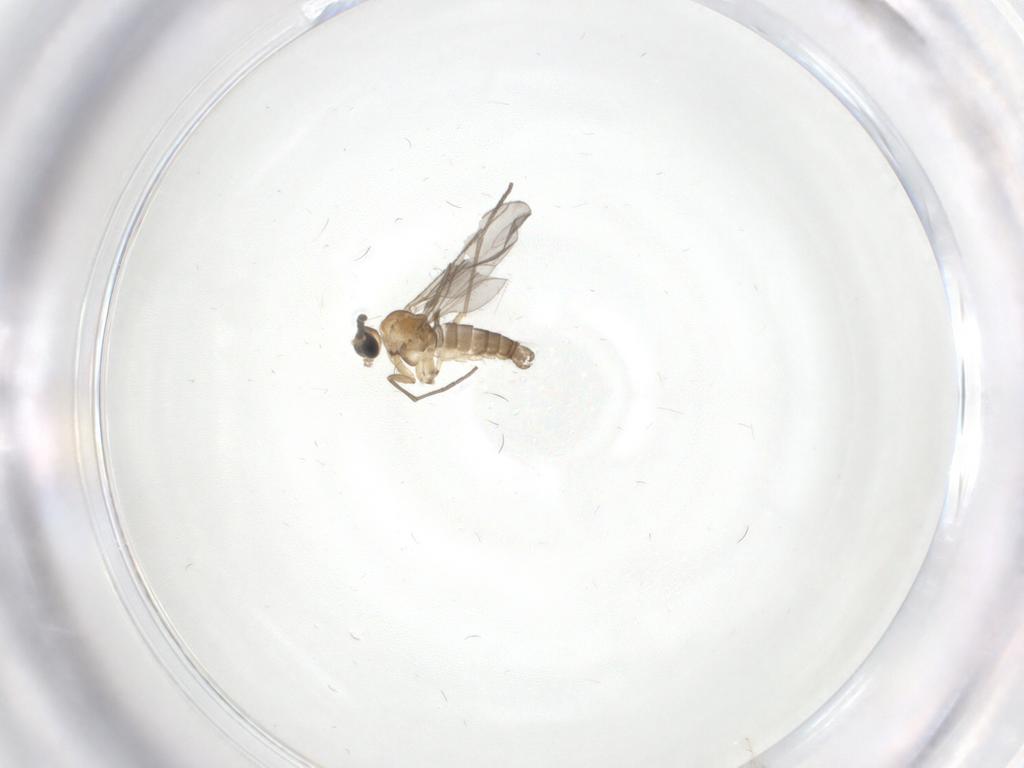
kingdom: Animalia
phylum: Arthropoda
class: Insecta
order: Diptera
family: Sciaridae
